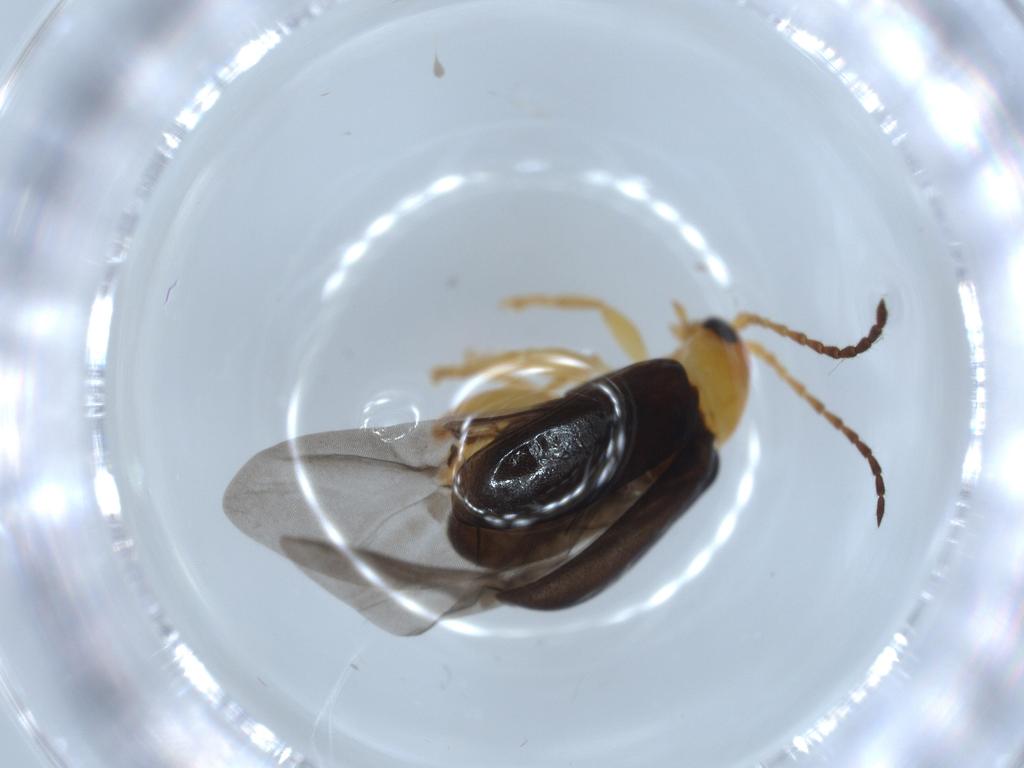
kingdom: Animalia
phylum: Arthropoda
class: Insecta
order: Coleoptera
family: Chrysomelidae
